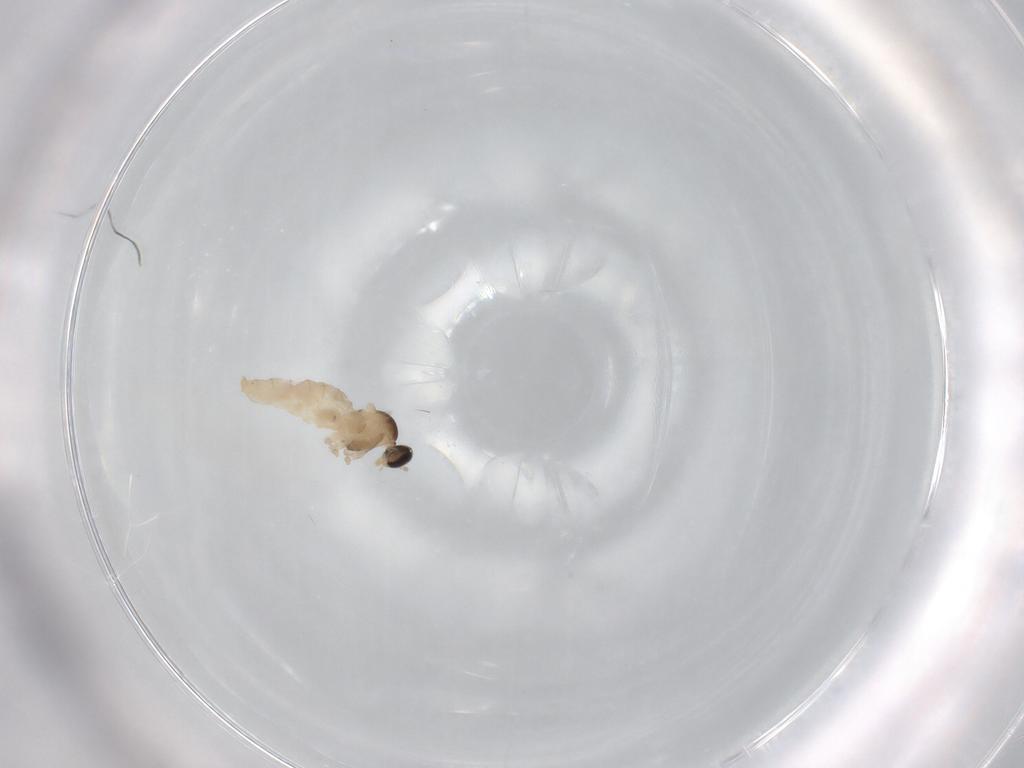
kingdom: Animalia
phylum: Arthropoda
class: Insecta
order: Diptera
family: Cecidomyiidae
